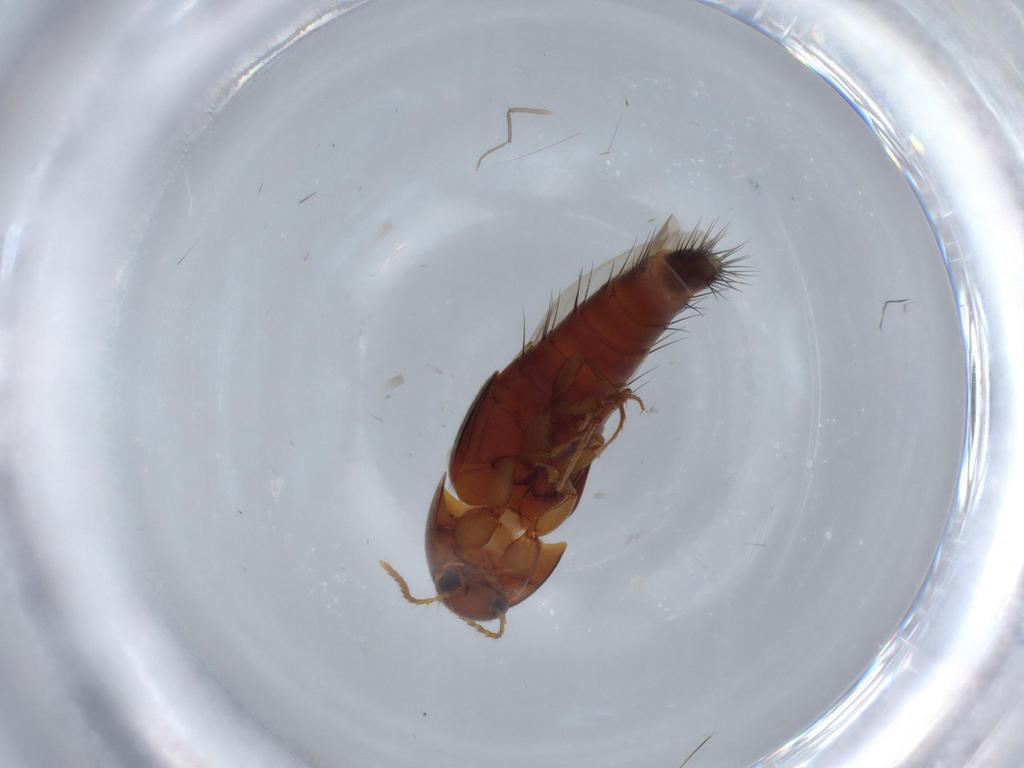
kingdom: Animalia
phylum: Arthropoda
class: Insecta
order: Coleoptera
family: Staphylinidae
